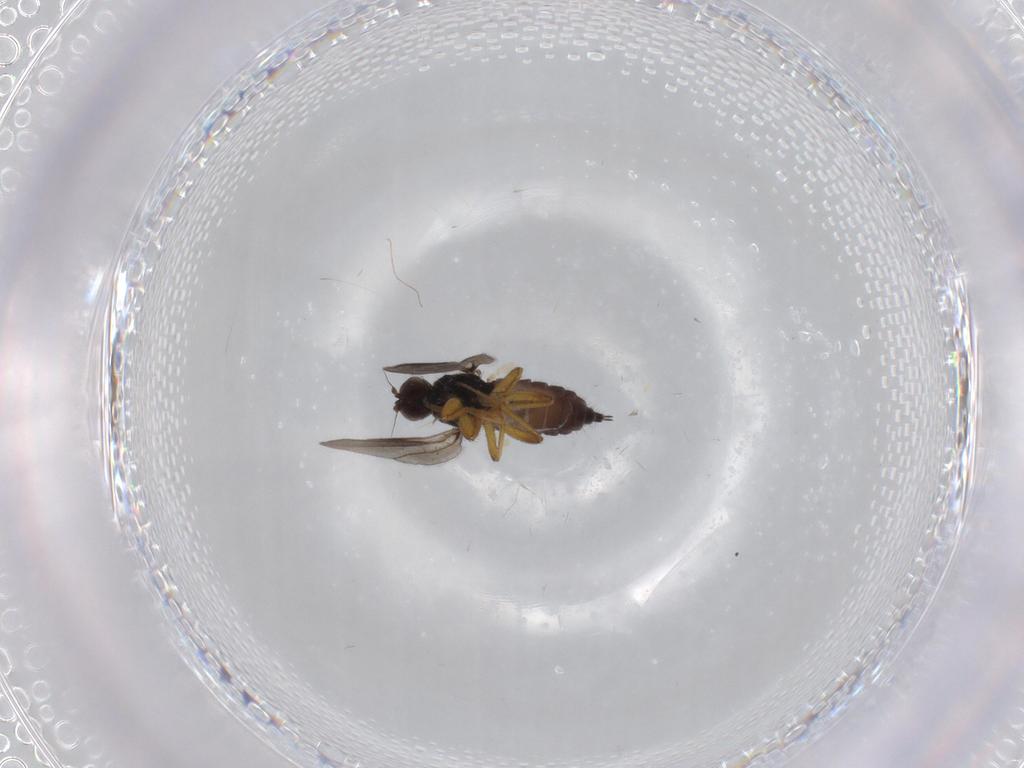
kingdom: Animalia
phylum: Arthropoda
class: Insecta
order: Diptera
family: Hybotidae
